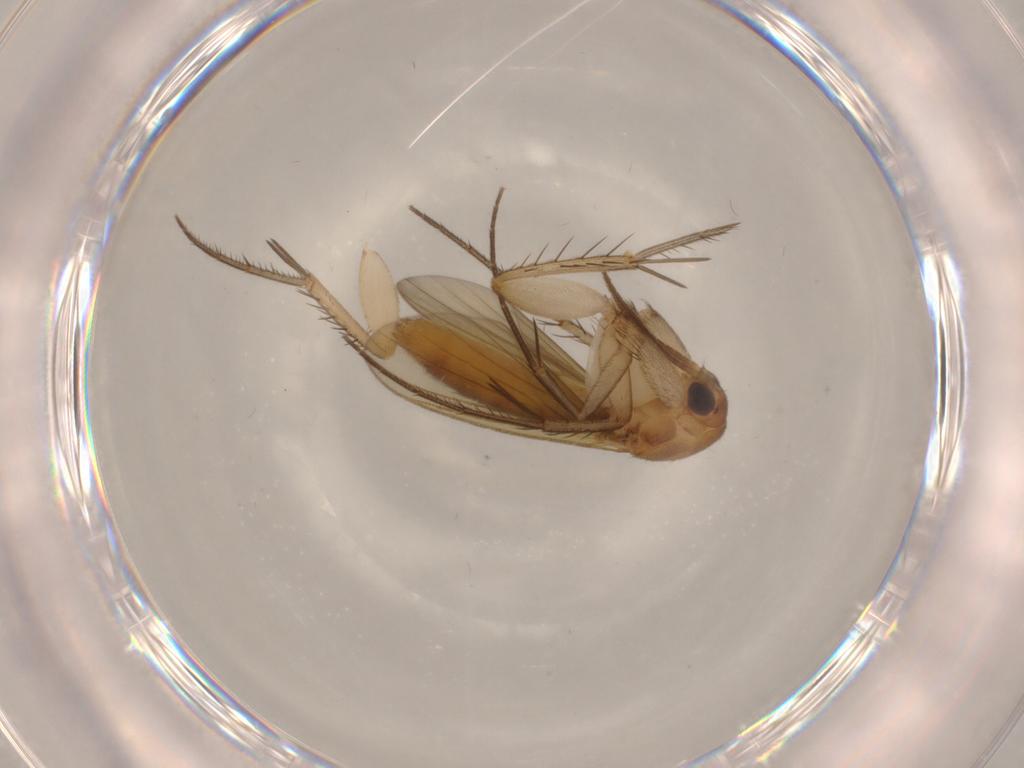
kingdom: Animalia
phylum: Arthropoda
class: Insecta
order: Diptera
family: Mycetophilidae
